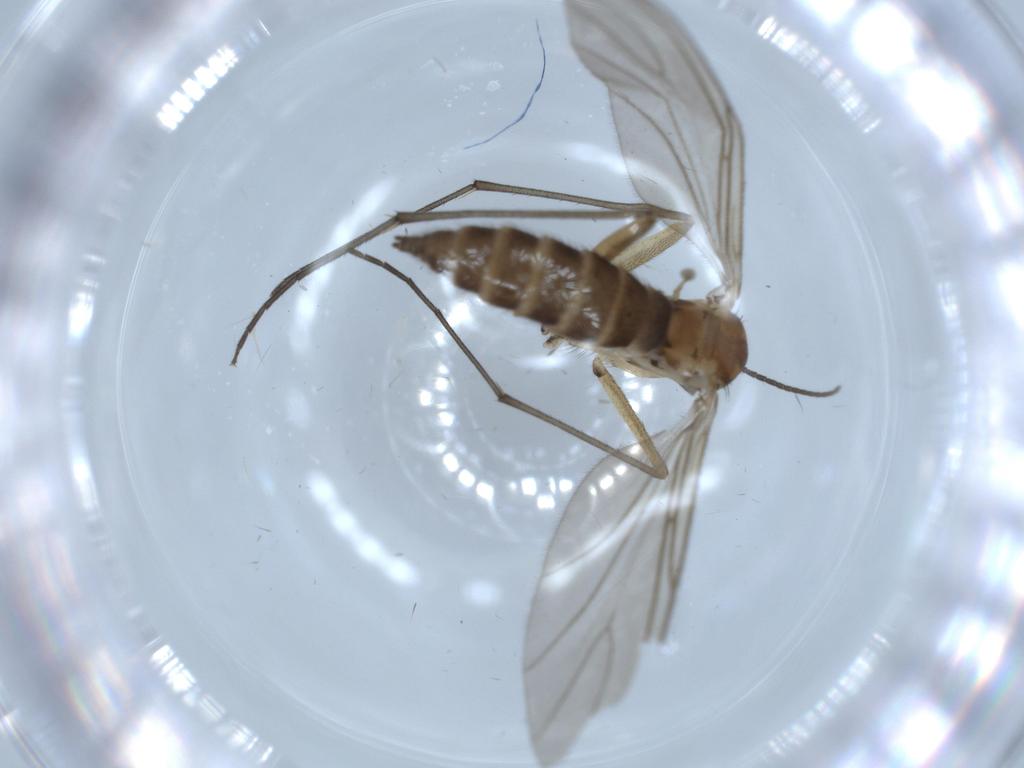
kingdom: Animalia
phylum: Arthropoda
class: Insecta
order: Diptera
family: Sciaridae
